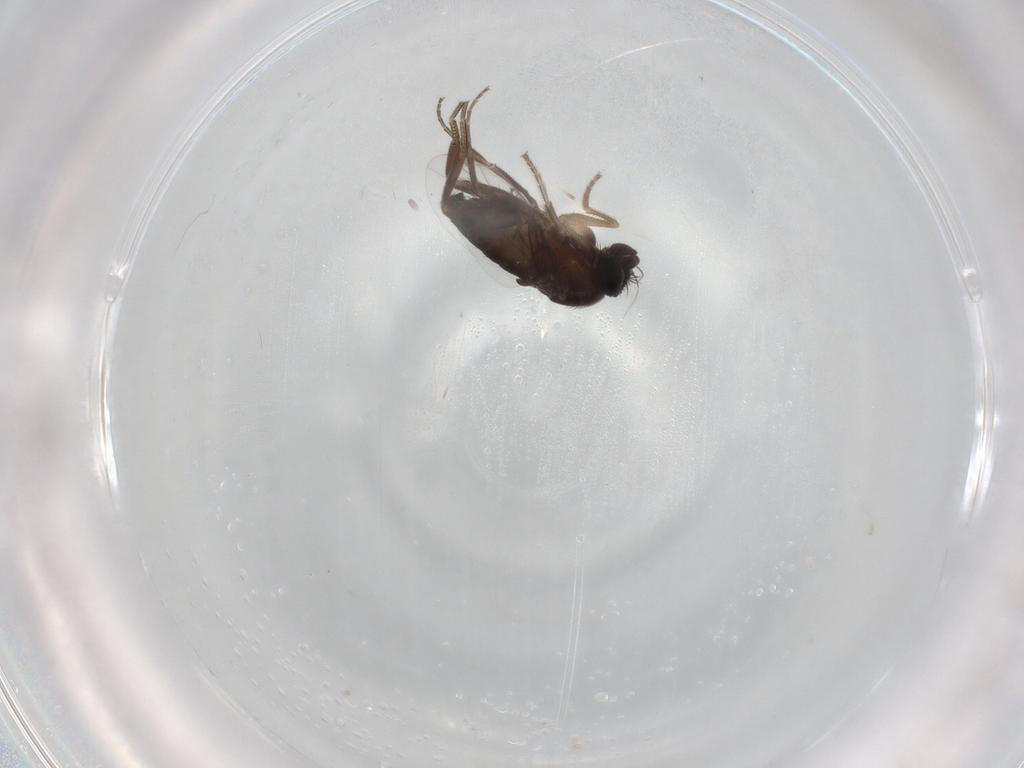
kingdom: Animalia
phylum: Arthropoda
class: Insecta
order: Diptera
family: Phoridae
